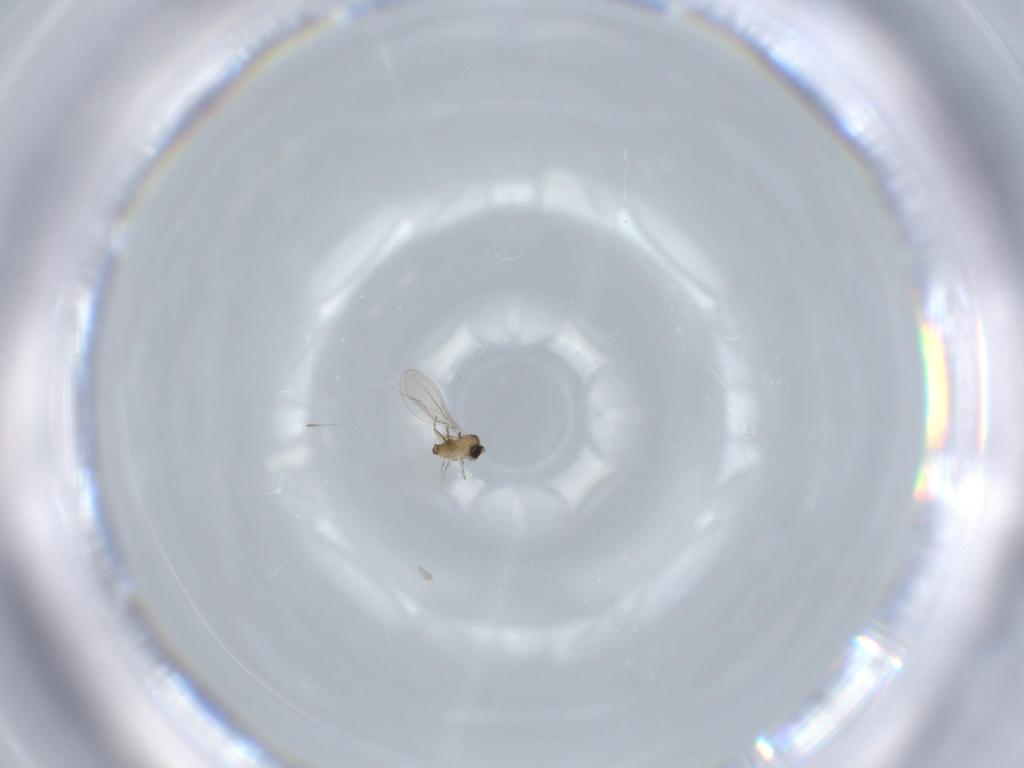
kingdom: Animalia
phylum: Arthropoda
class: Insecta
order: Diptera
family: Cecidomyiidae
